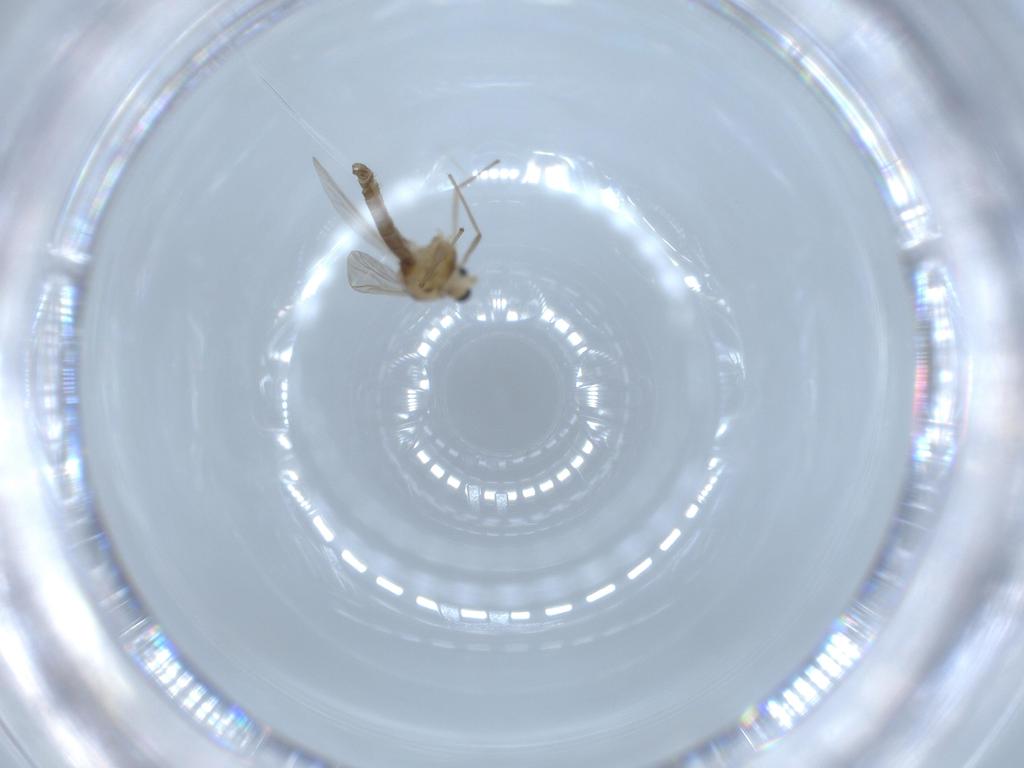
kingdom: Animalia
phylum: Arthropoda
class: Insecta
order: Diptera
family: Chironomidae
